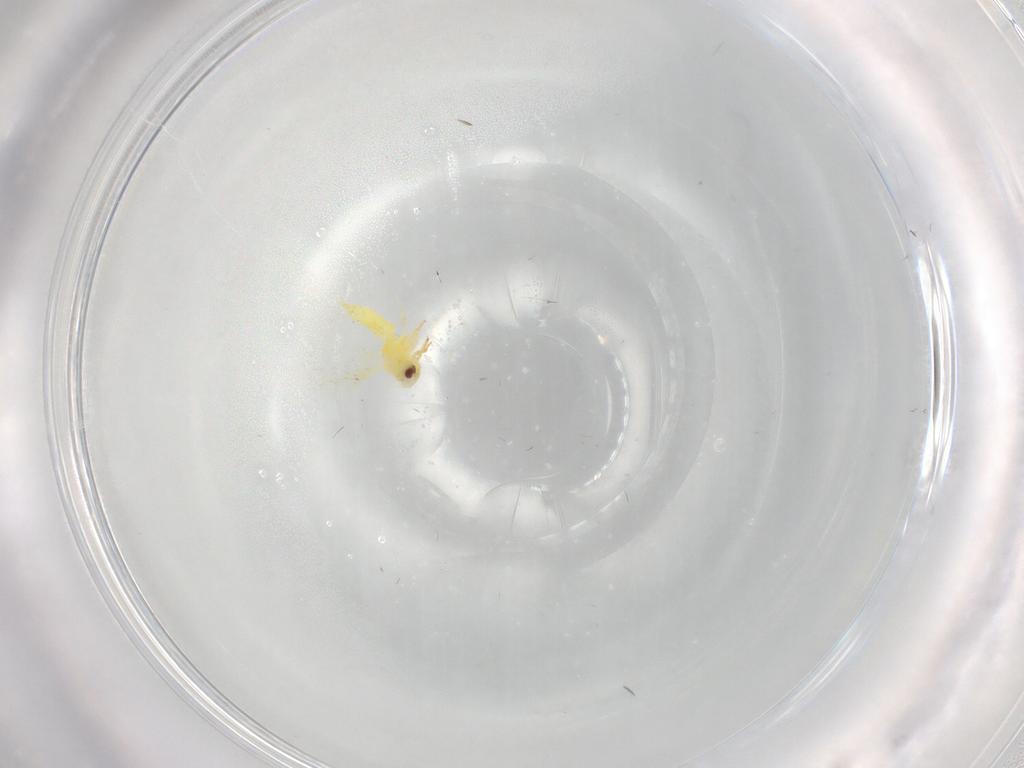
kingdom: Animalia
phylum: Arthropoda
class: Insecta
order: Hemiptera
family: Aleyrodidae
